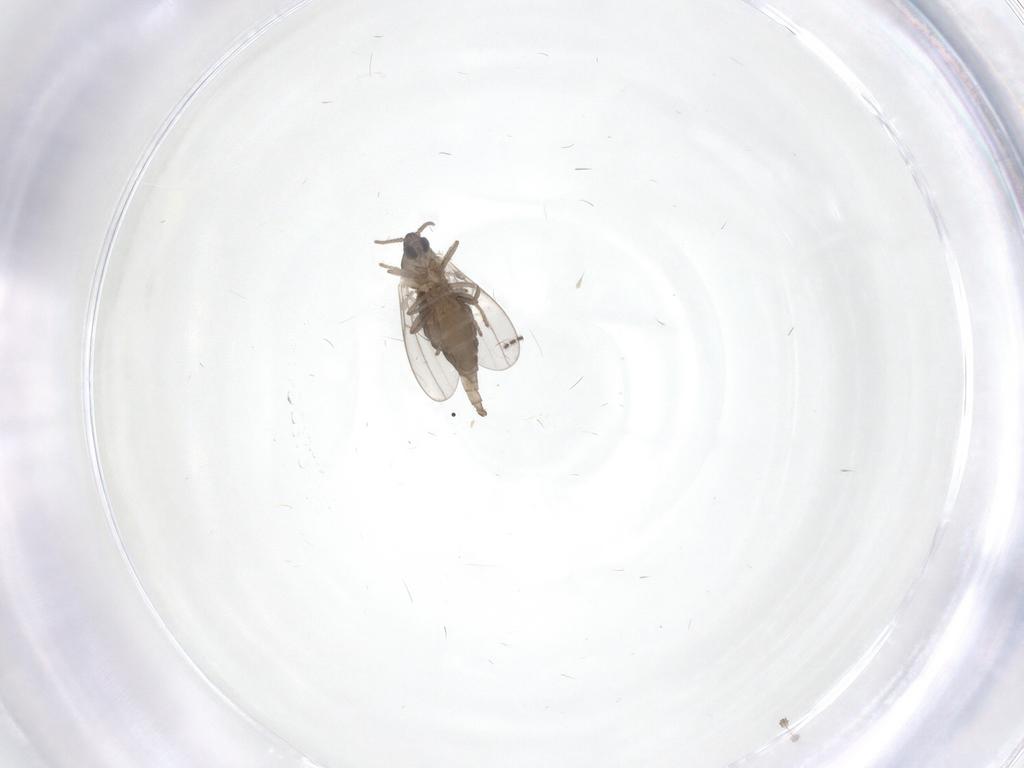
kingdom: Animalia
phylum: Arthropoda
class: Insecta
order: Diptera
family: Cecidomyiidae
